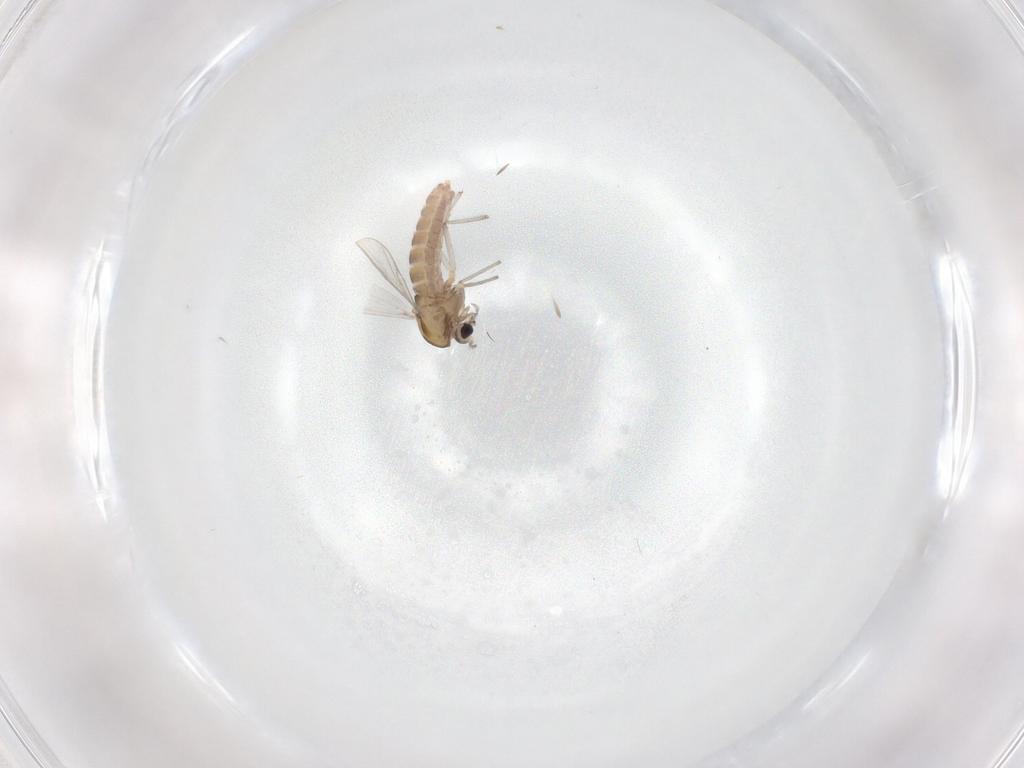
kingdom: Animalia
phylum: Arthropoda
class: Insecta
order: Diptera
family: Chironomidae
